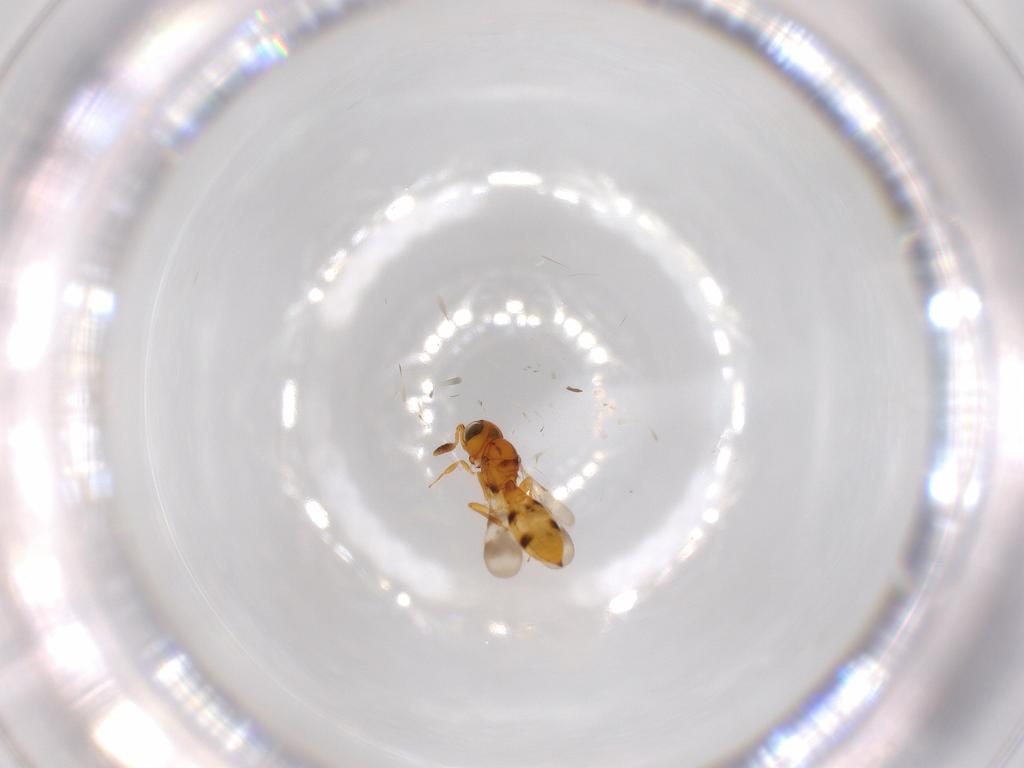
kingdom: Animalia
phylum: Arthropoda
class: Insecta
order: Hymenoptera
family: Scelionidae
